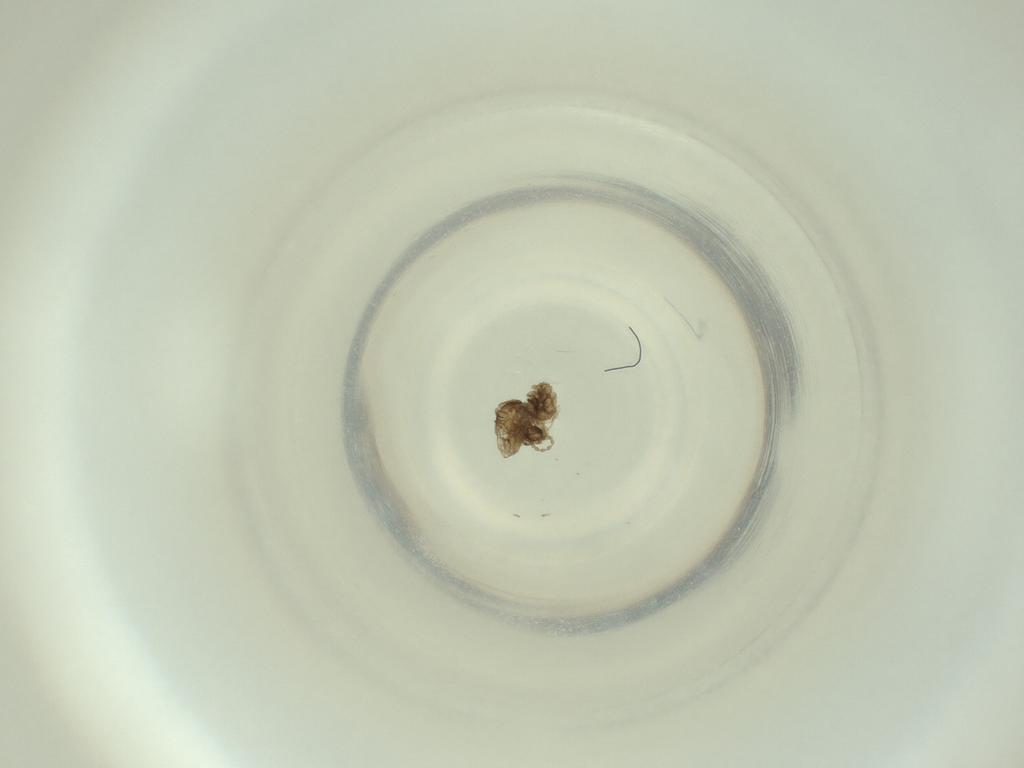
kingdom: Animalia
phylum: Arthropoda
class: Insecta
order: Diptera
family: Cecidomyiidae
